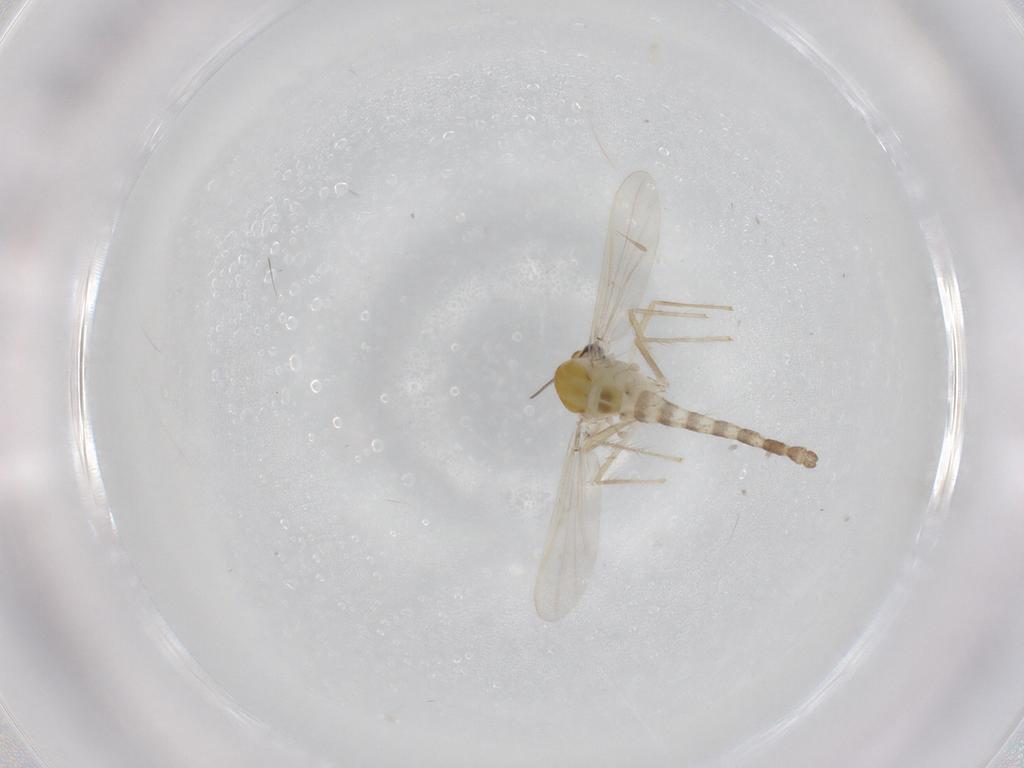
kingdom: Animalia
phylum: Arthropoda
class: Insecta
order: Diptera
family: Chironomidae
